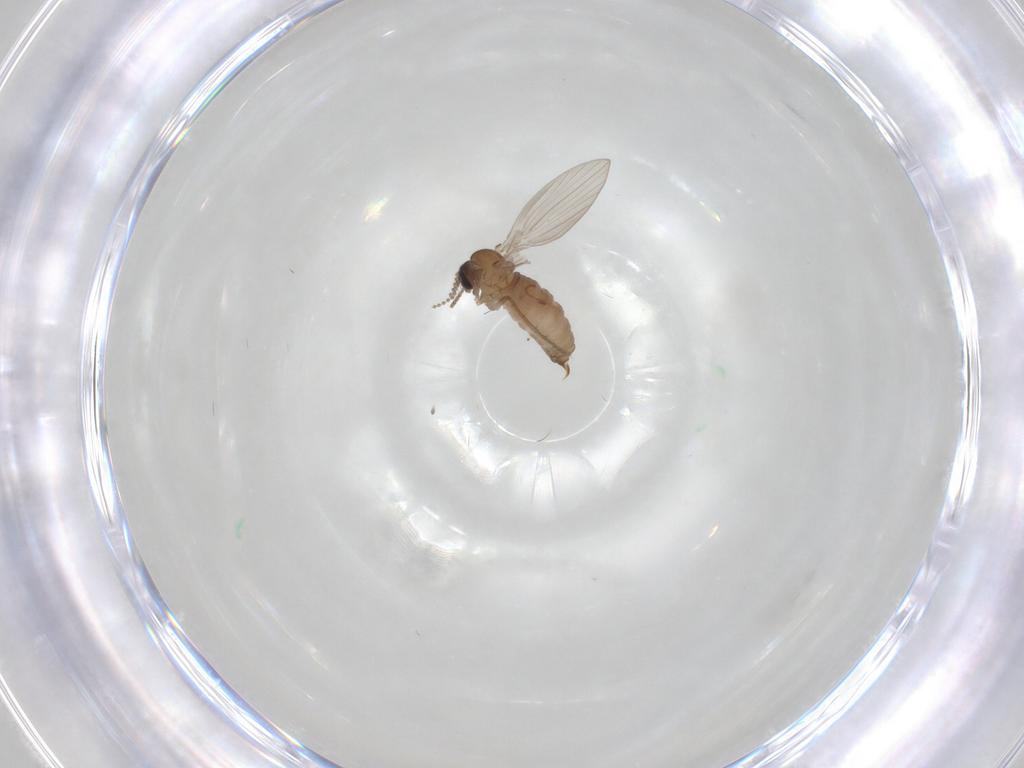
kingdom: Animalia
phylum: Arthropoda
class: Insecta
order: Diptera
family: Psychodidae
